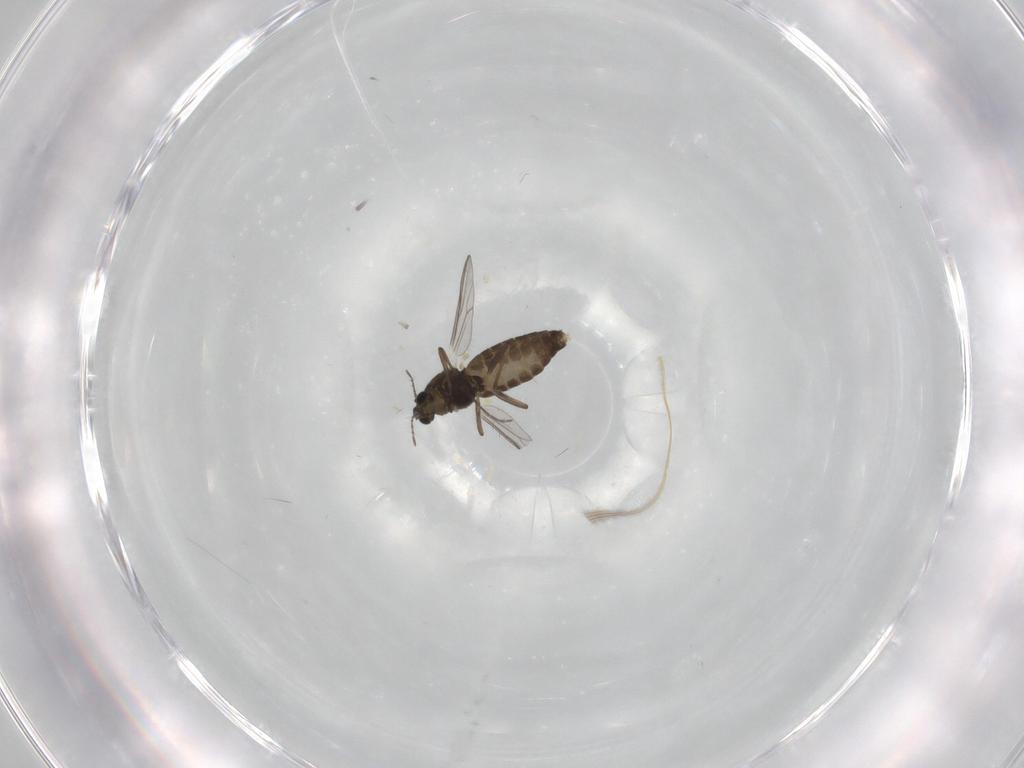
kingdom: Animalia
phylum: Arthropoda
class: Insecta
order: Diptera
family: Chironomidae
